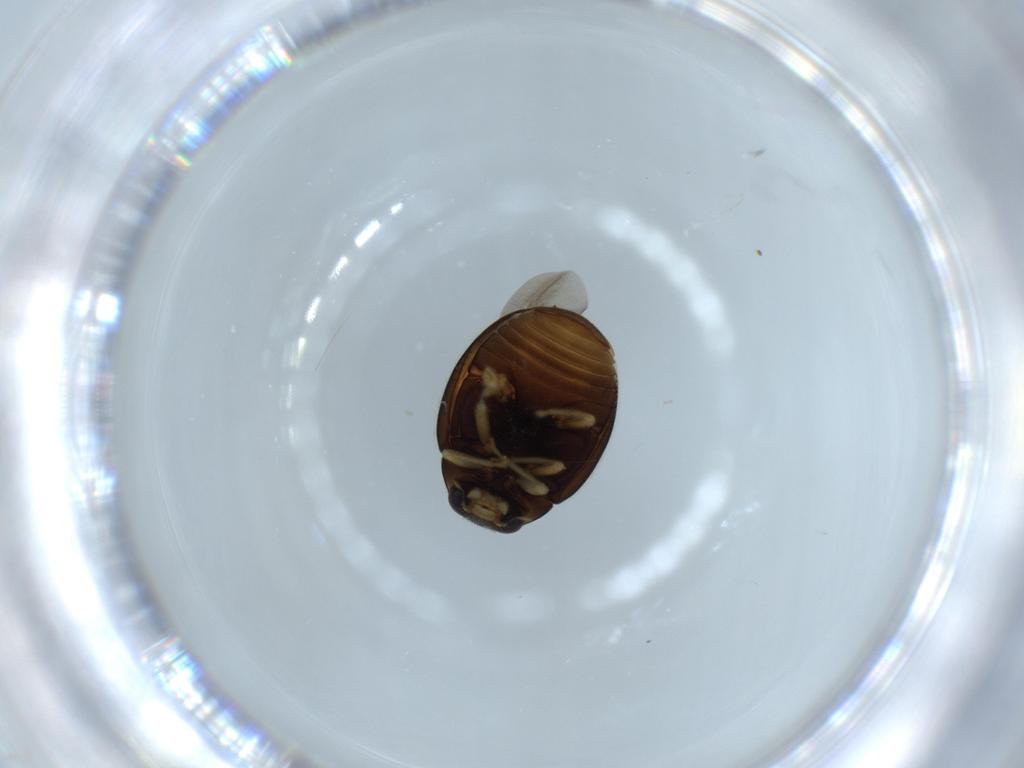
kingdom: Animalia
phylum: Arthropoda
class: Insecta
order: Coleoptera
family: Coccinellidae
